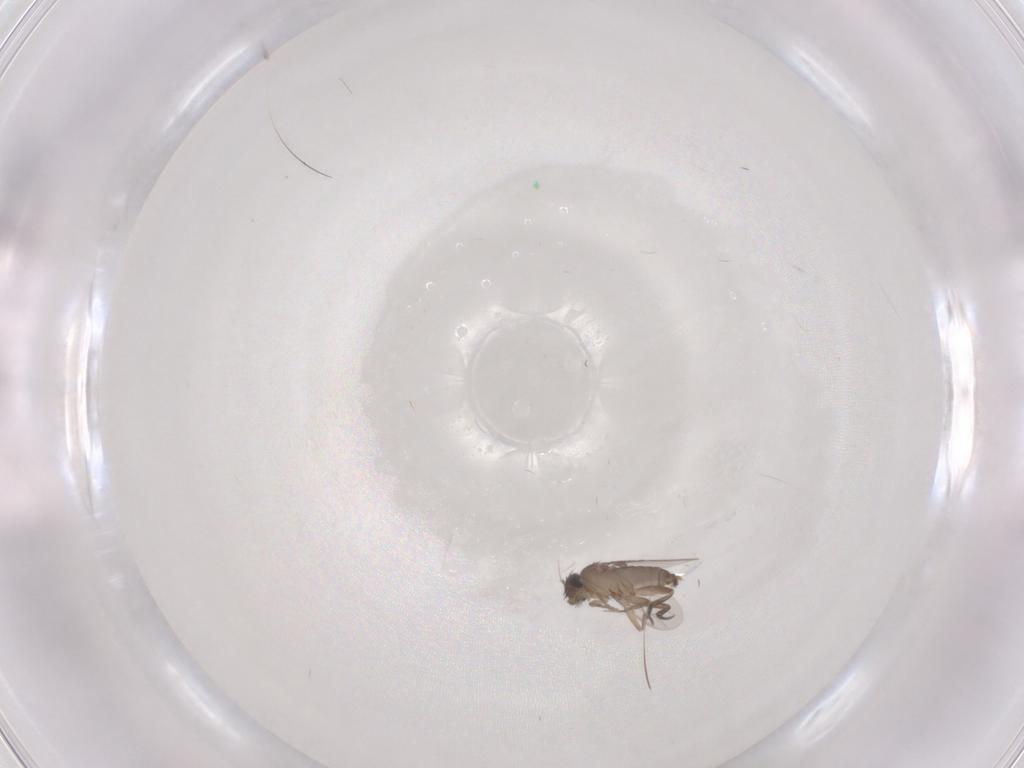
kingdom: Animalia
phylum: Arthropoda
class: Insecta
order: Diptera
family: Phoridae
